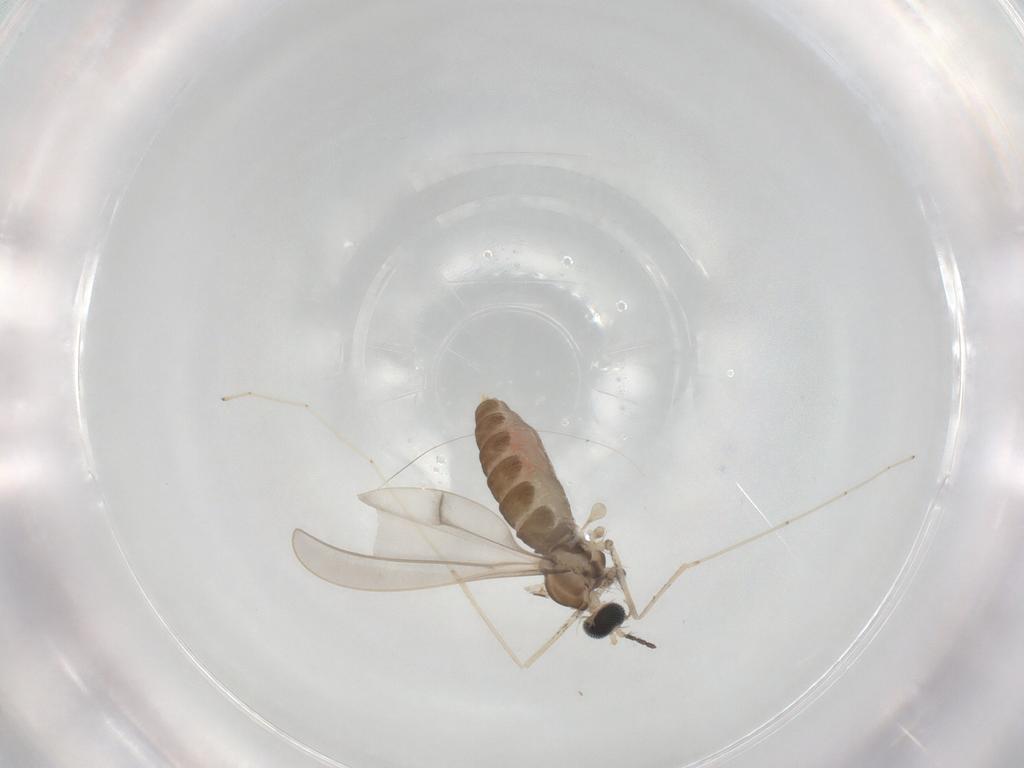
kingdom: Animalia
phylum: Arthropoda
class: Insecta
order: Diptera
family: Cecidomyiidae
